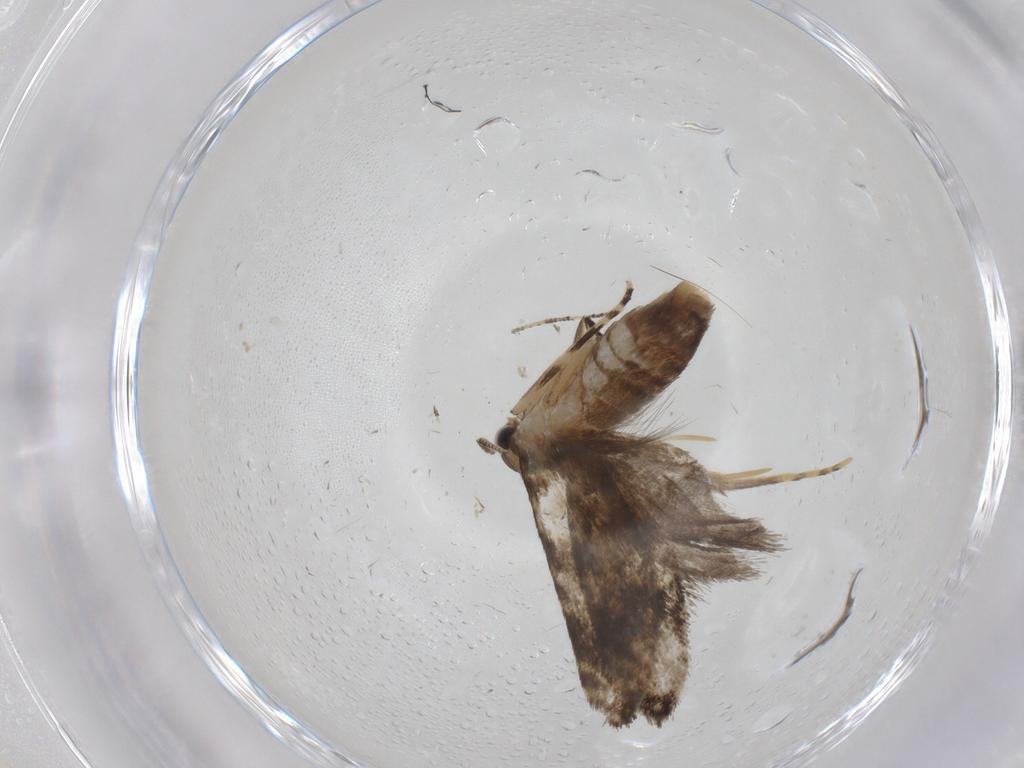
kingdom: Animalia
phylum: Arthropoda
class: Insecta
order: Lepidoptera
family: Tineidae
